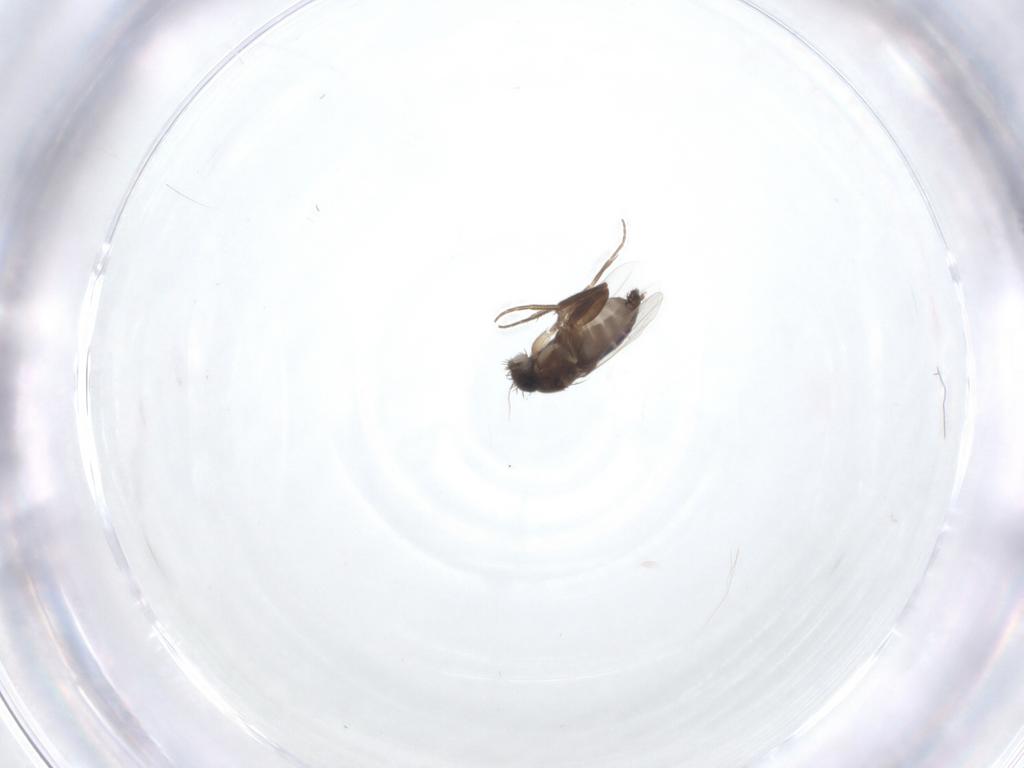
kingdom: Animalia
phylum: Arthropoda
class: Insecta
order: Diptera
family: Phoridae
